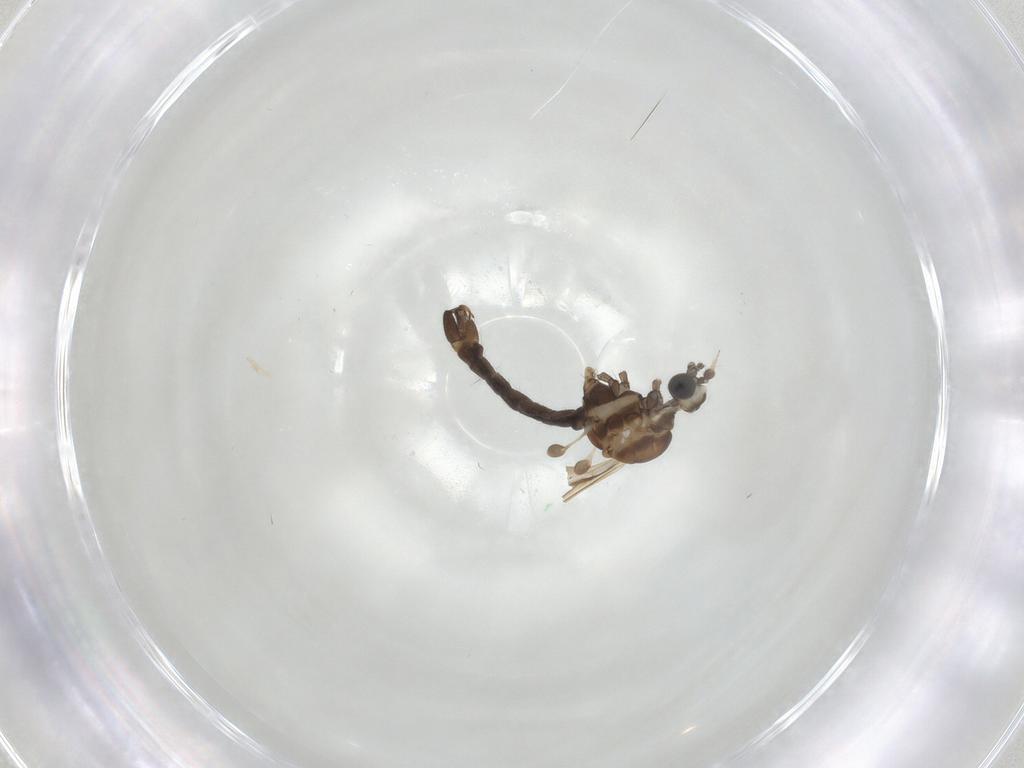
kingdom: Animalia
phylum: Arthropoda
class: Insecta
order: Diptera
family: Limoniidae
